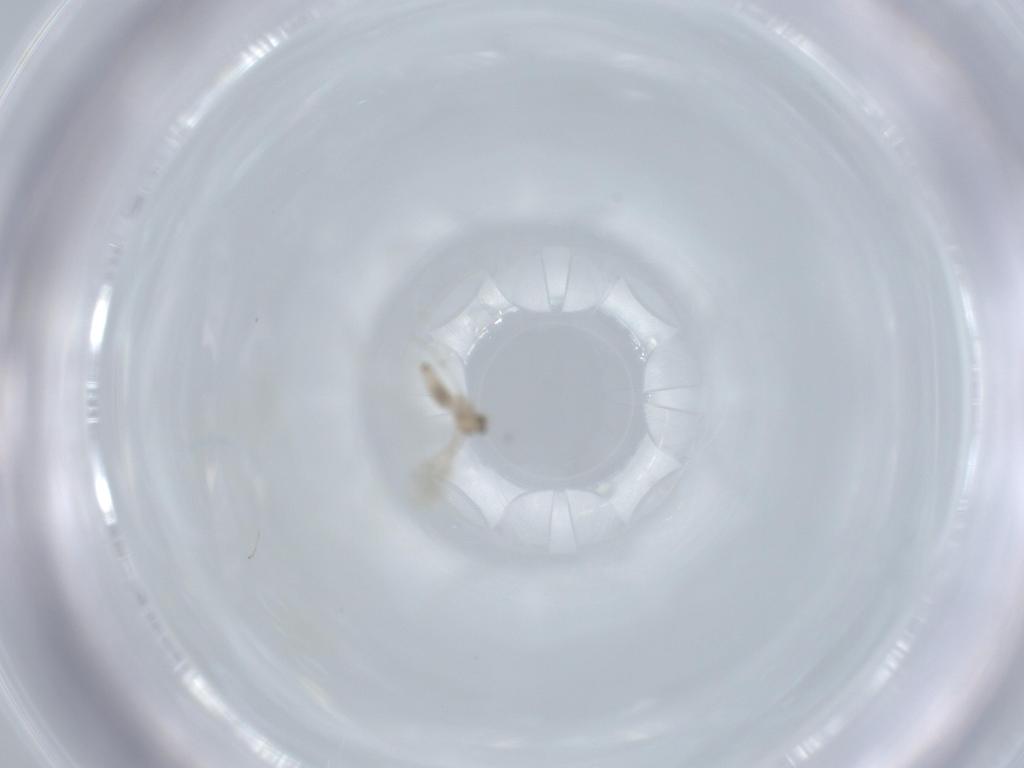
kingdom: Animalia
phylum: Arthropoda
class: Insecta
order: Diptera
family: Cecidomyiidae
